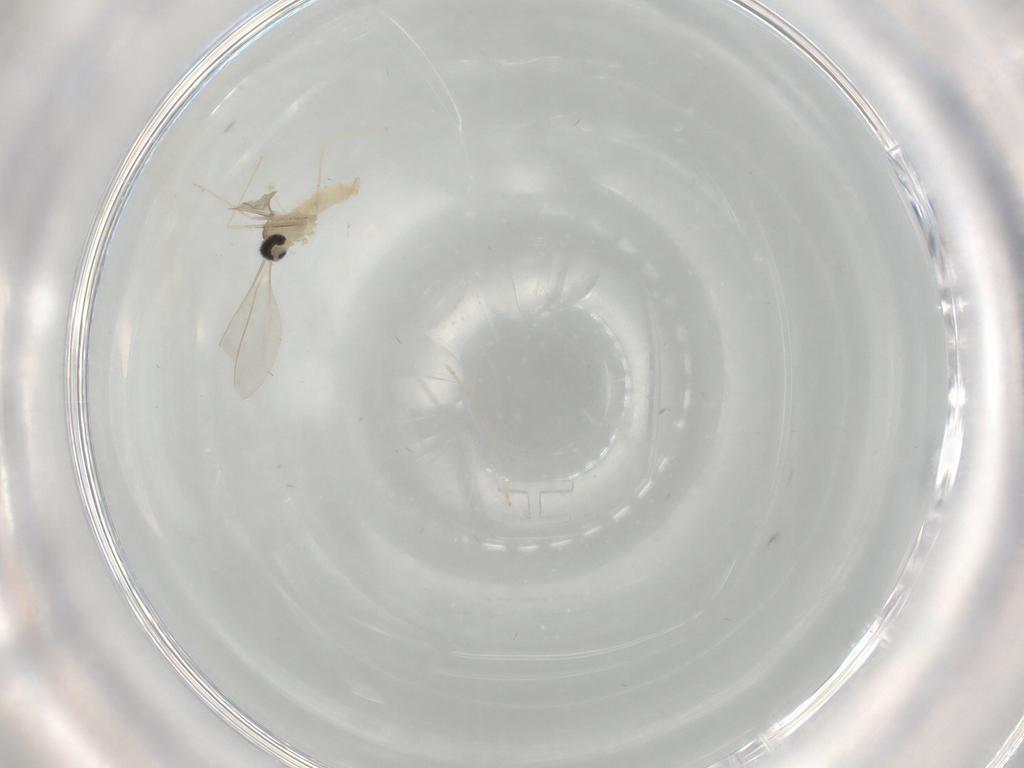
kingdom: Animalia
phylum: Arthropoda
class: Insecta
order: Diptera
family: Cecidomyiidae
